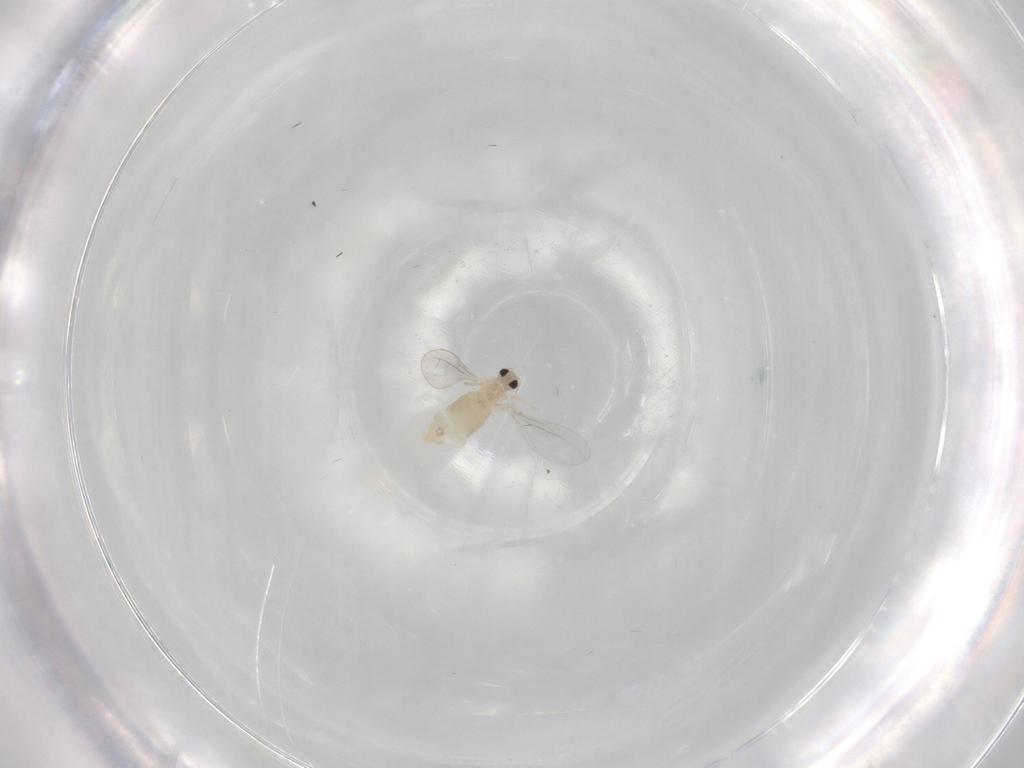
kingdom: Animalia
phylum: Arthropoda
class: Insecta
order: Diptera
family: Cecidomyiidae
